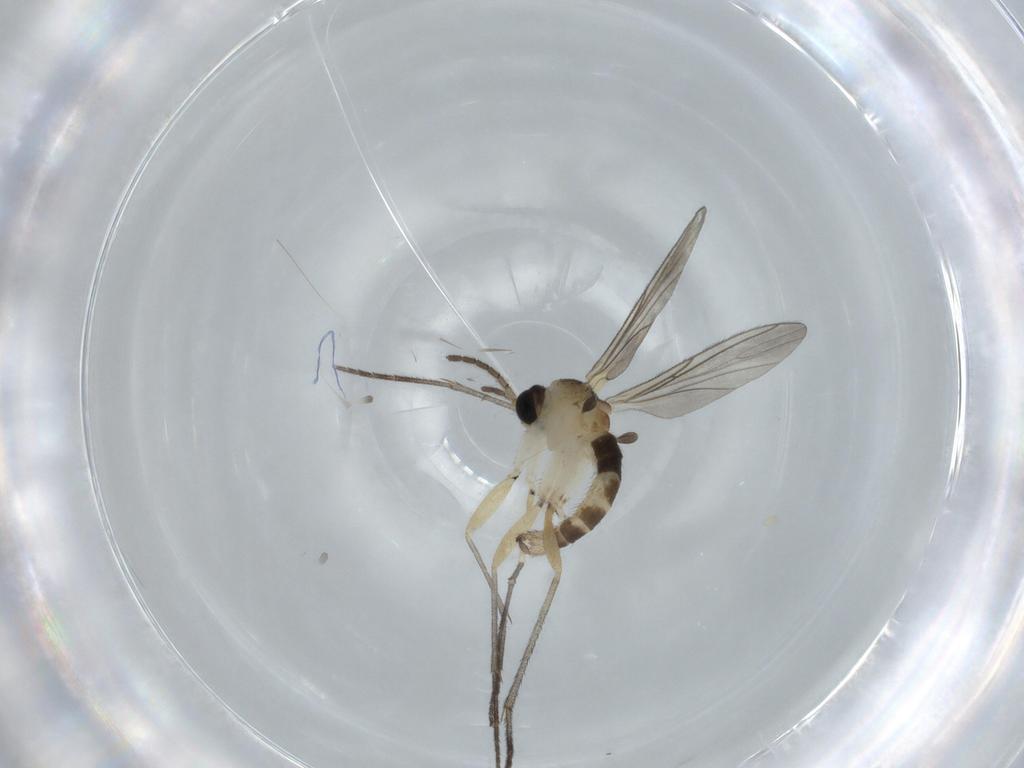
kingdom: Animalia
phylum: Arthropoda
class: Insecta
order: Diptera
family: Sciaridae
